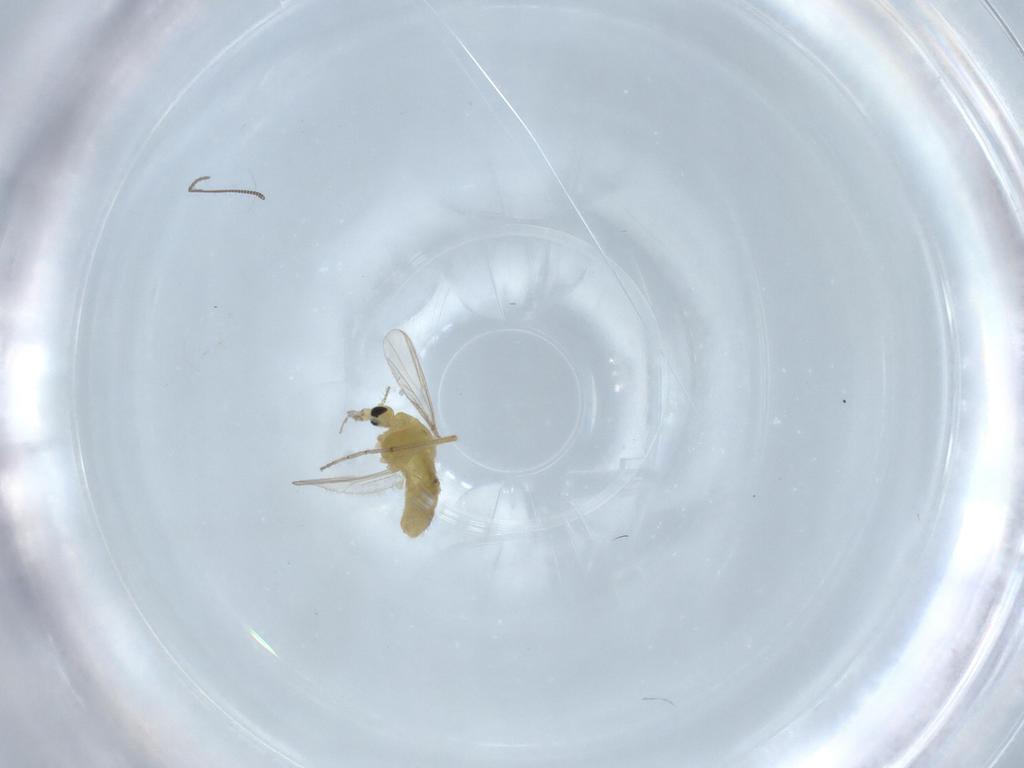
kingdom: Animalia
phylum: Arthropoda
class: Insecta
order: Diptera
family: Chironomidae
